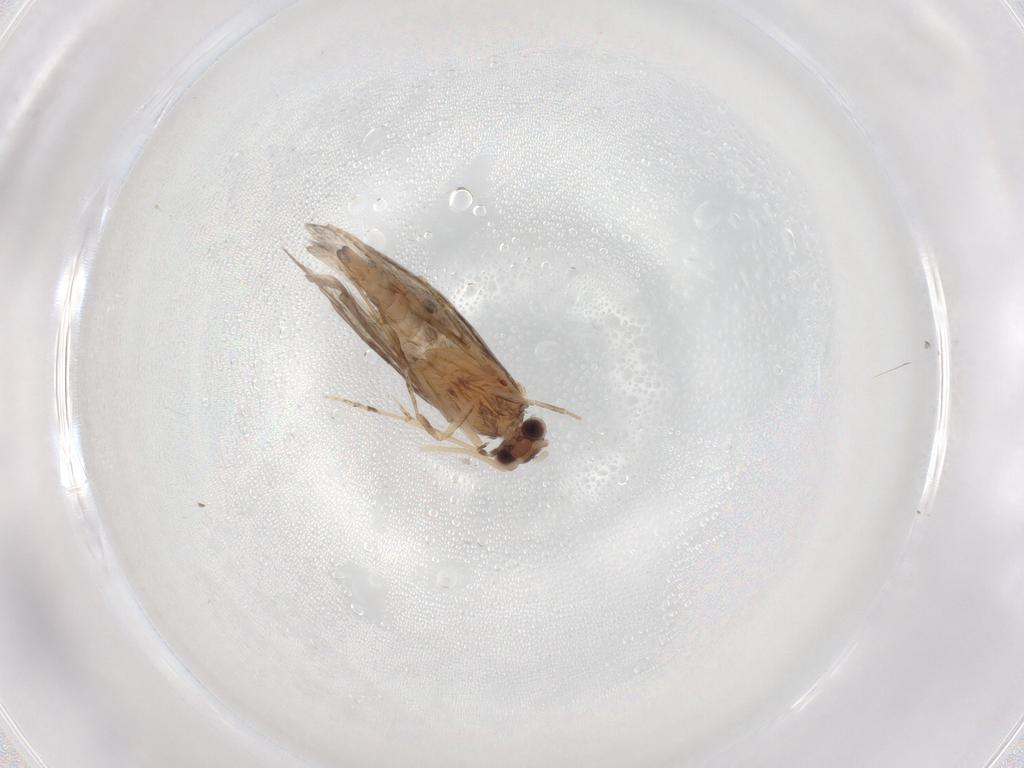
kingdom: Animalia
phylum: Arthropoda
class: Insecta
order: Trichoptera
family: Hydroptilidae
